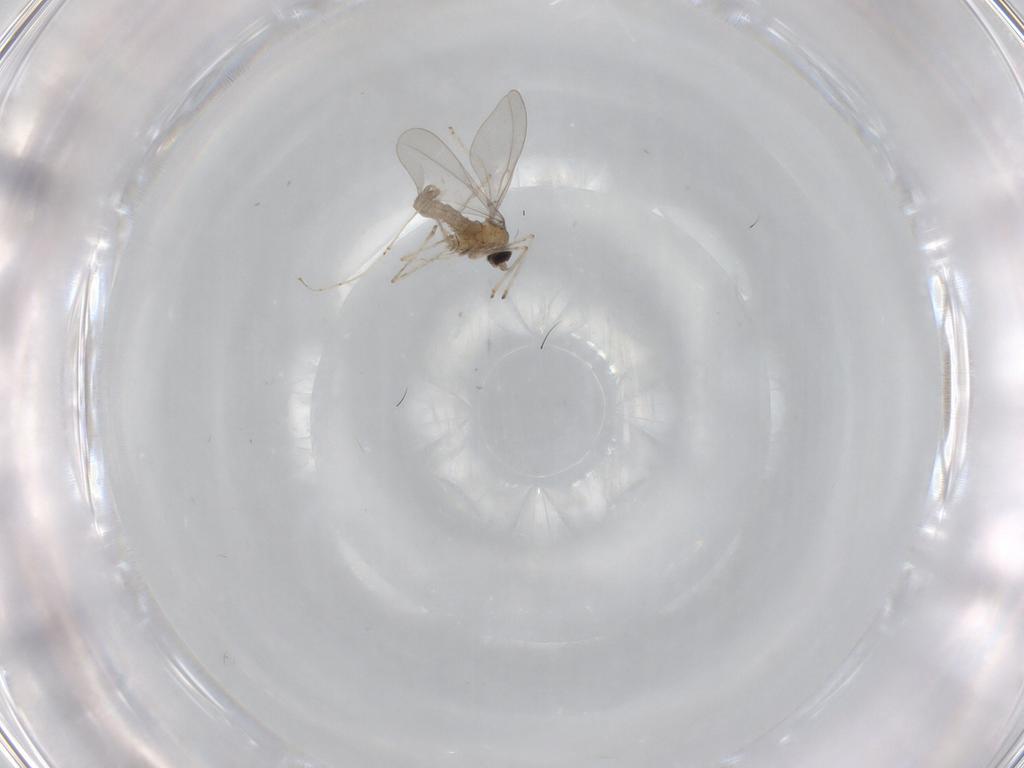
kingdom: Animalia
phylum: Arthropoda
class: Insecta
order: Diptera
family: Cecidomyiidae
